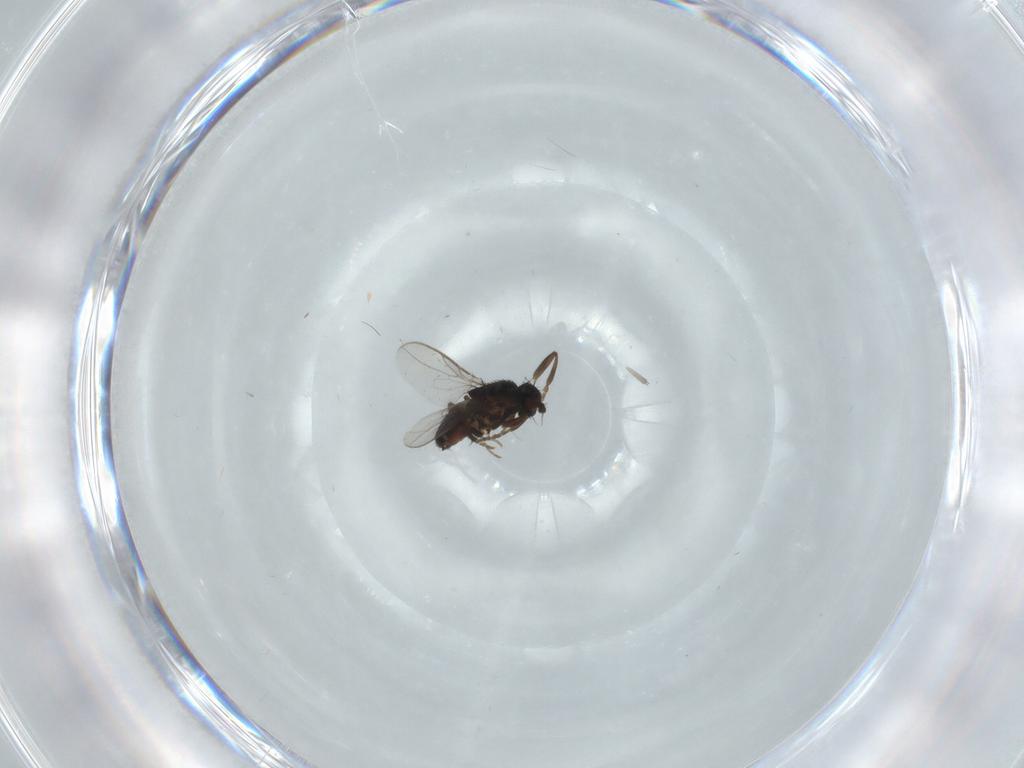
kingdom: Animalia
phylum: Arthropoda
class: Insecta
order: Diptera
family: Sphaeroceridae
